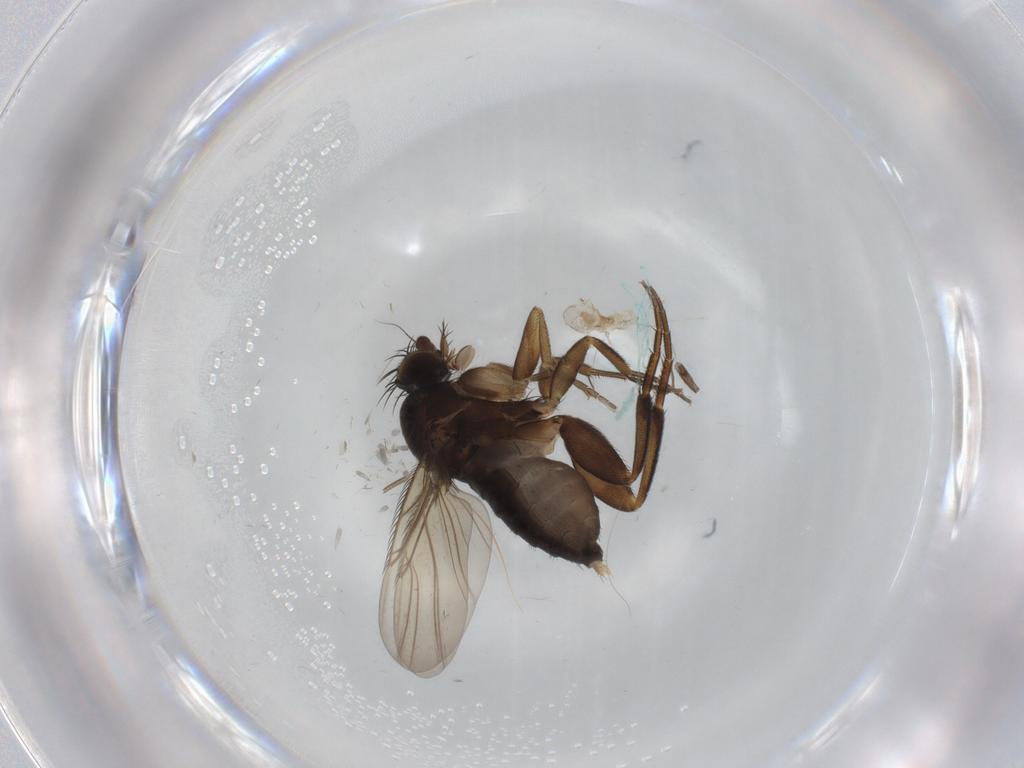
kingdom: Animalia
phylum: Arthropoda
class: Insecta
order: Diptera
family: Phoridae
